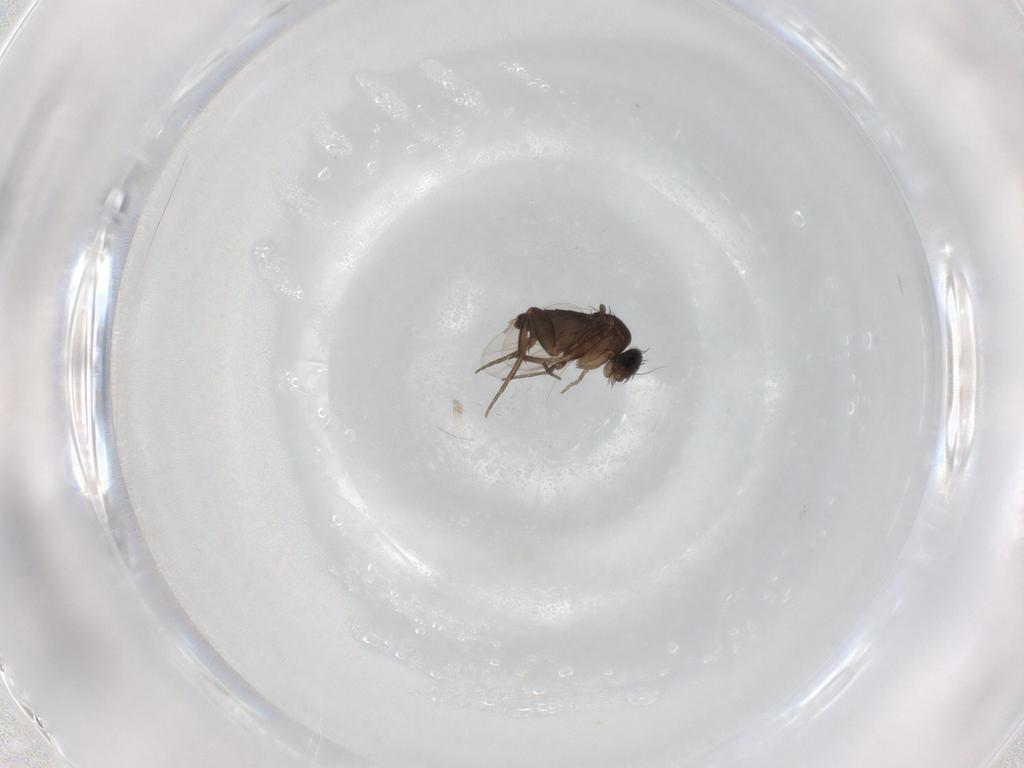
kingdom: Animalia
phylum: Arthropoda
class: Insecta
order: Diptera
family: Phoridae
